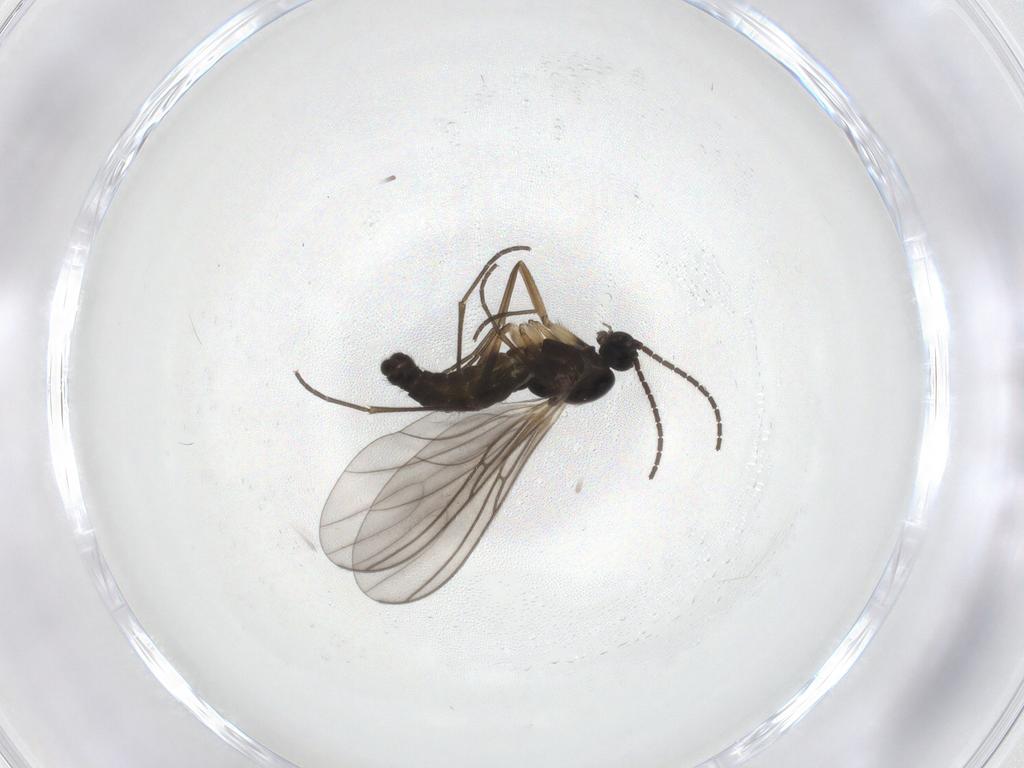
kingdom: Animalia
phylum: Arthropoda
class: Insecta
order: Diptera
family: Sciaridae
